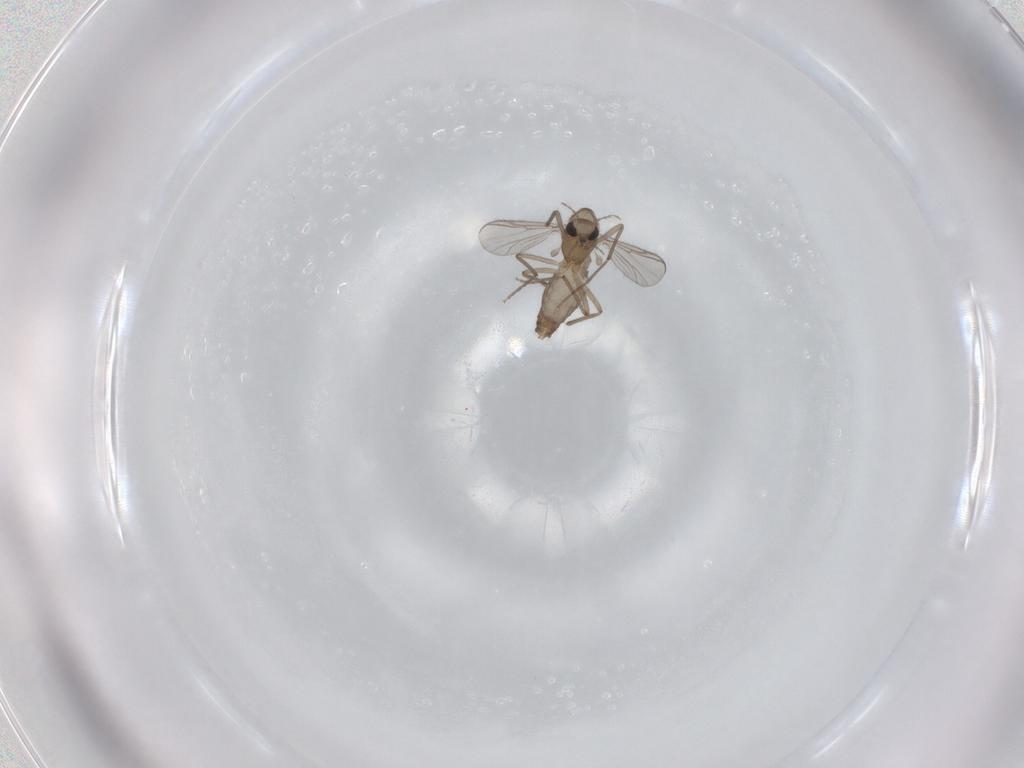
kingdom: Animalia
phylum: Arthropoda
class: Insecta
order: Diptera
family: Chironomidae
